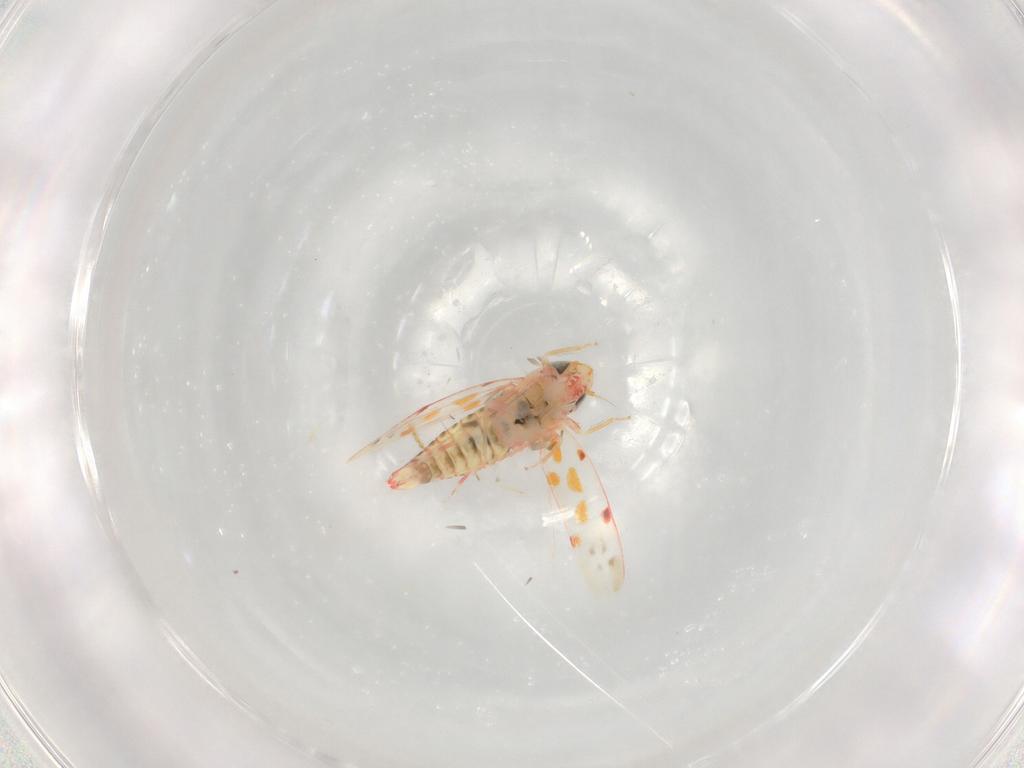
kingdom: Animalia
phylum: Arthropoda
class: Insecta
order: Hemiptera
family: Cicadellidae
